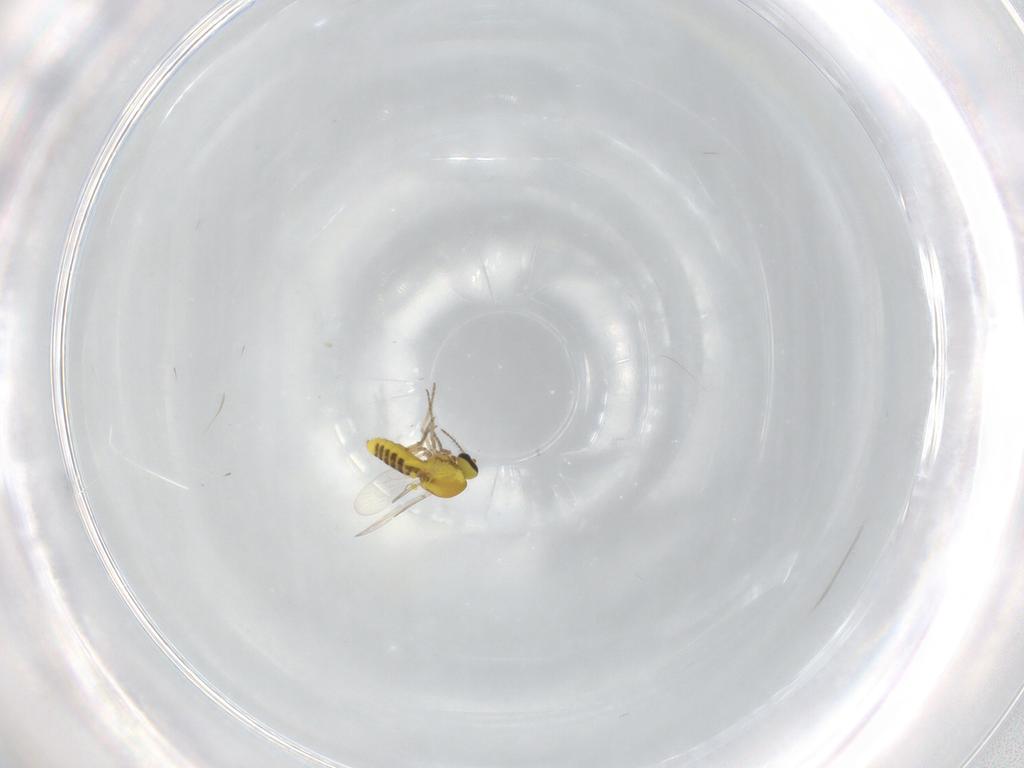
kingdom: Animalia
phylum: Arthropoda
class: Insecta
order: Diptera
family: Ceratopogonidae
